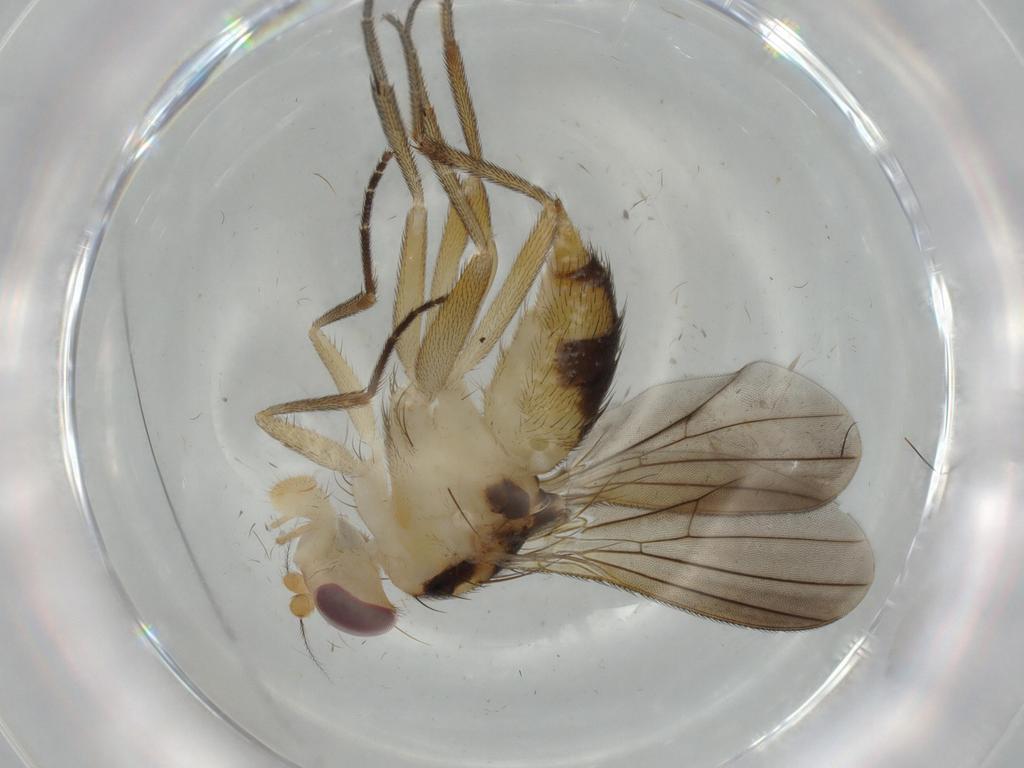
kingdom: Animalia
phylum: Arthropoda
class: Insecta
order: Diptera
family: Clusiidae
